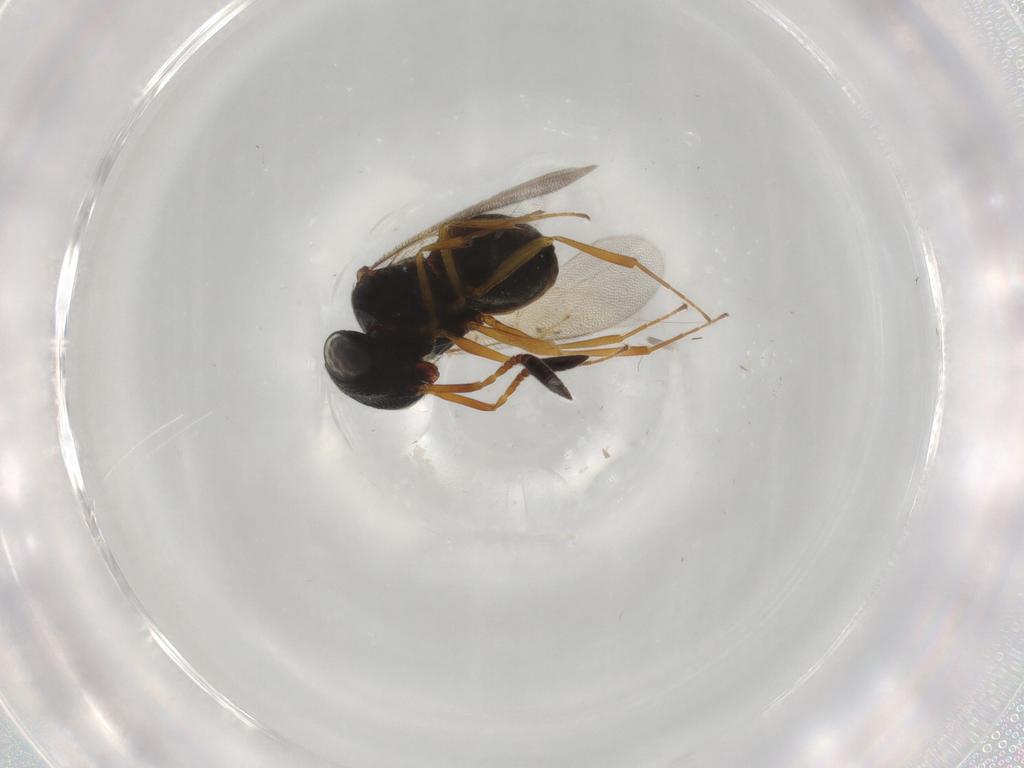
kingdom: Animalia
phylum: Arthropoda
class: Insecta
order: Hymenoptera
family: Scelionidae
